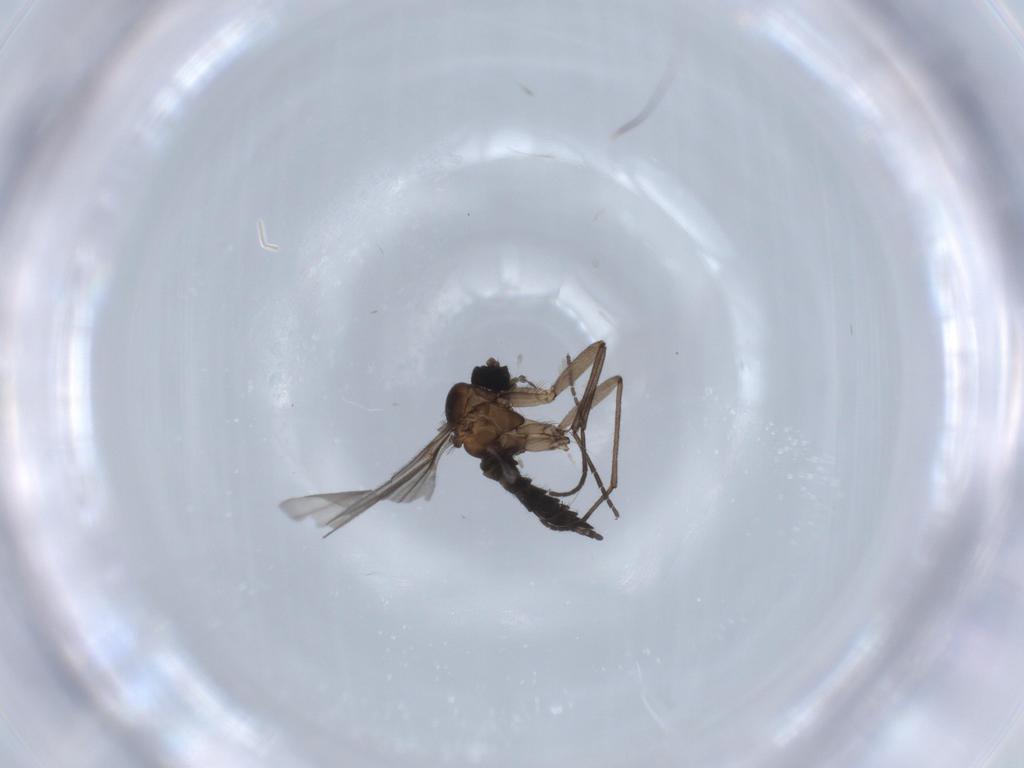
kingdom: Animalia
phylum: Arthropoda
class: Insecta
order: Diptera
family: Sciaridae
